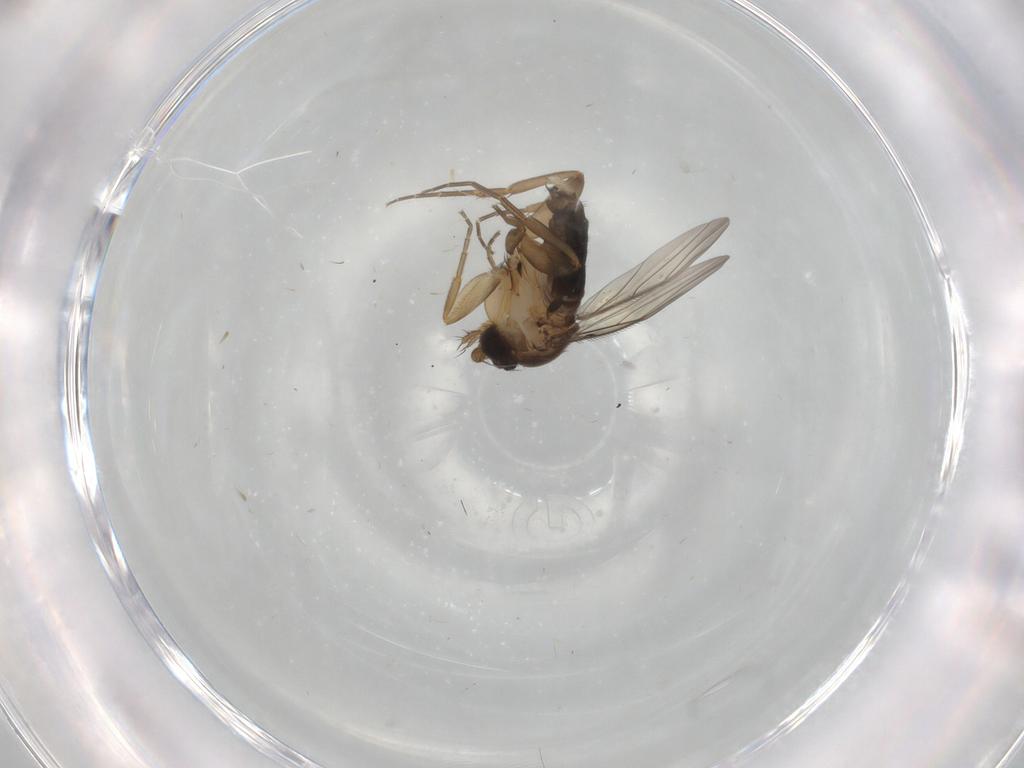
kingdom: Animalia
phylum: Arthropoda
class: Insecta
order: Diptera
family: Phoridae
